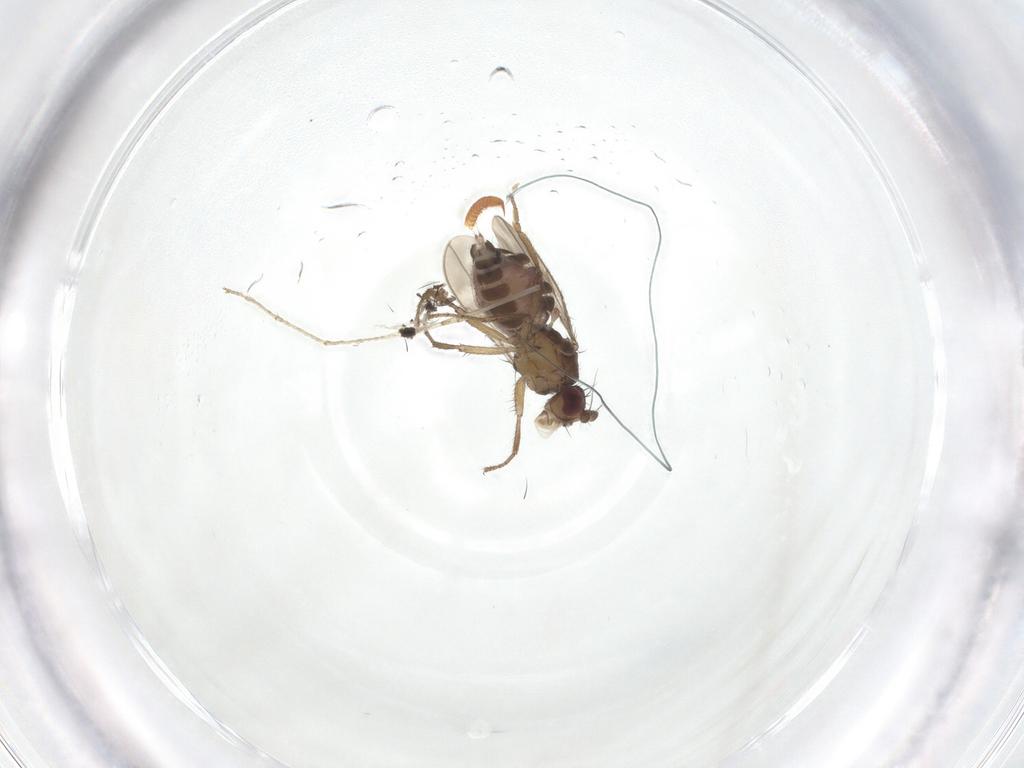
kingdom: Animalia
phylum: Arthropoda
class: Insecta
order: Diptera
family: Sphaeroceridae
